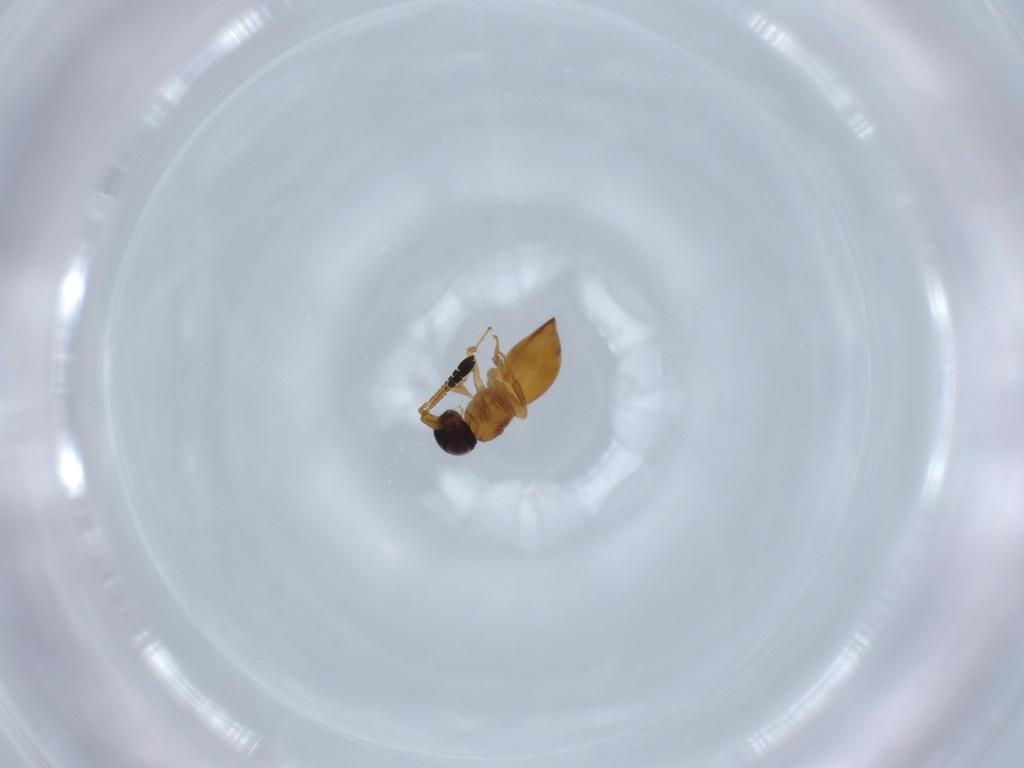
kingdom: Animalia
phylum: Arthropoda
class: Insecta
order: Hymenoptera
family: Ceraphronidae
